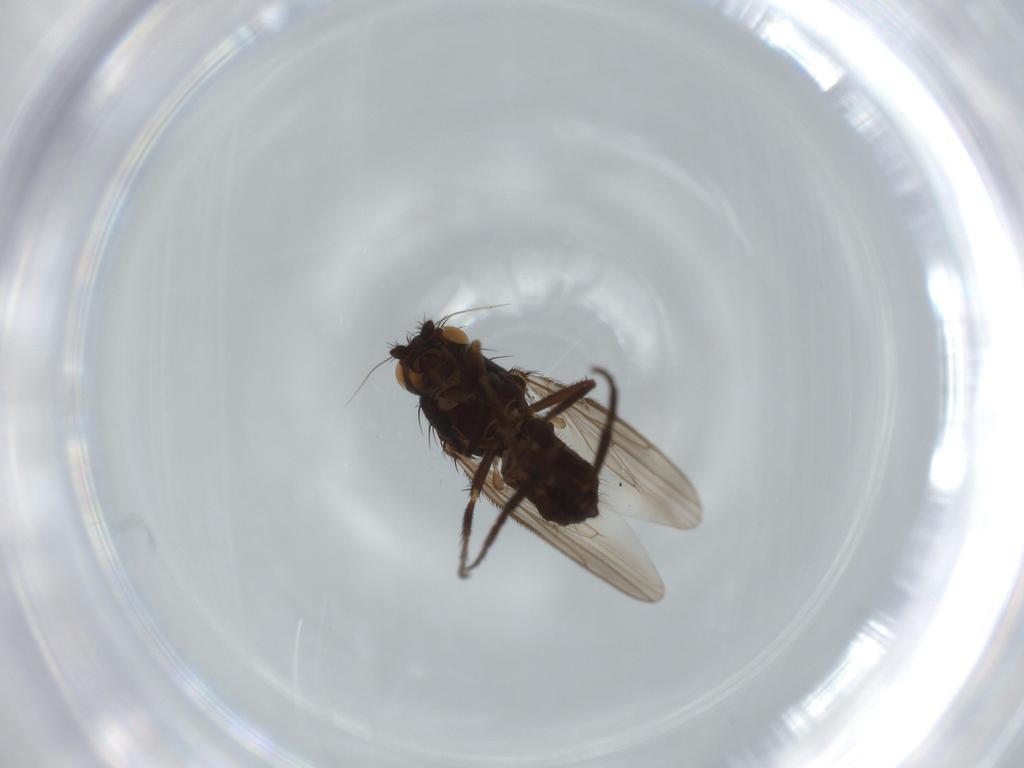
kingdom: Animalia
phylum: Arthropoda
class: Insecta
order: Diptera
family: Sphaeroceridae
